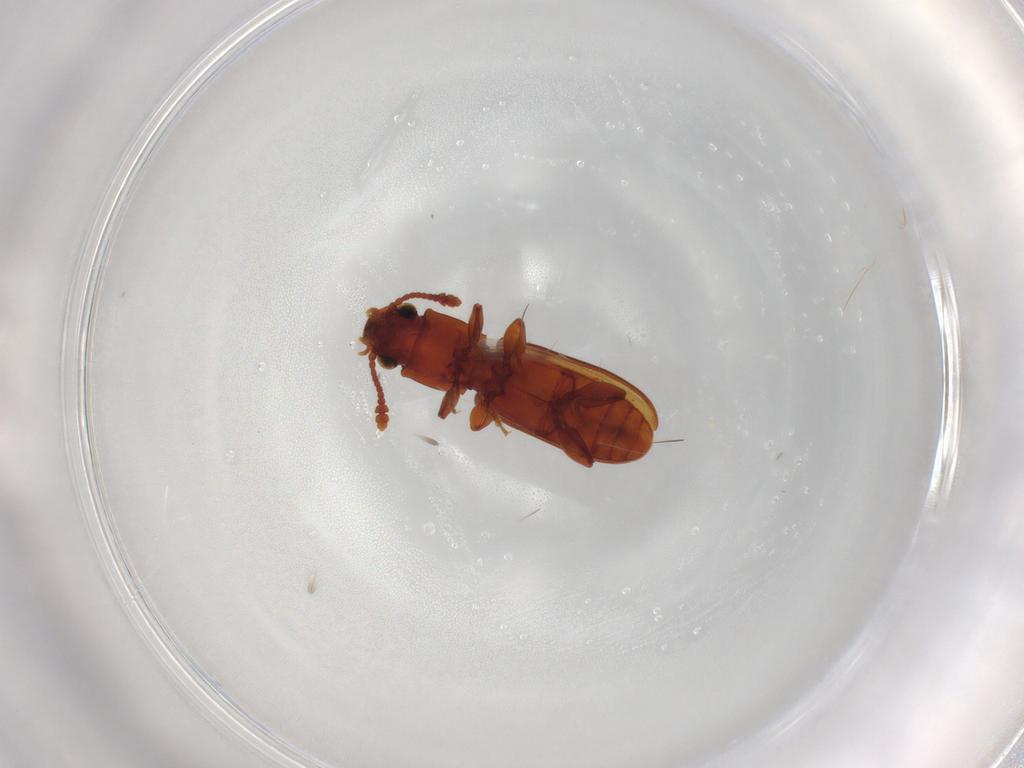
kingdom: Animalia
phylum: Arthropoda
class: Insecta
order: Coleoptera
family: Silvanidae
